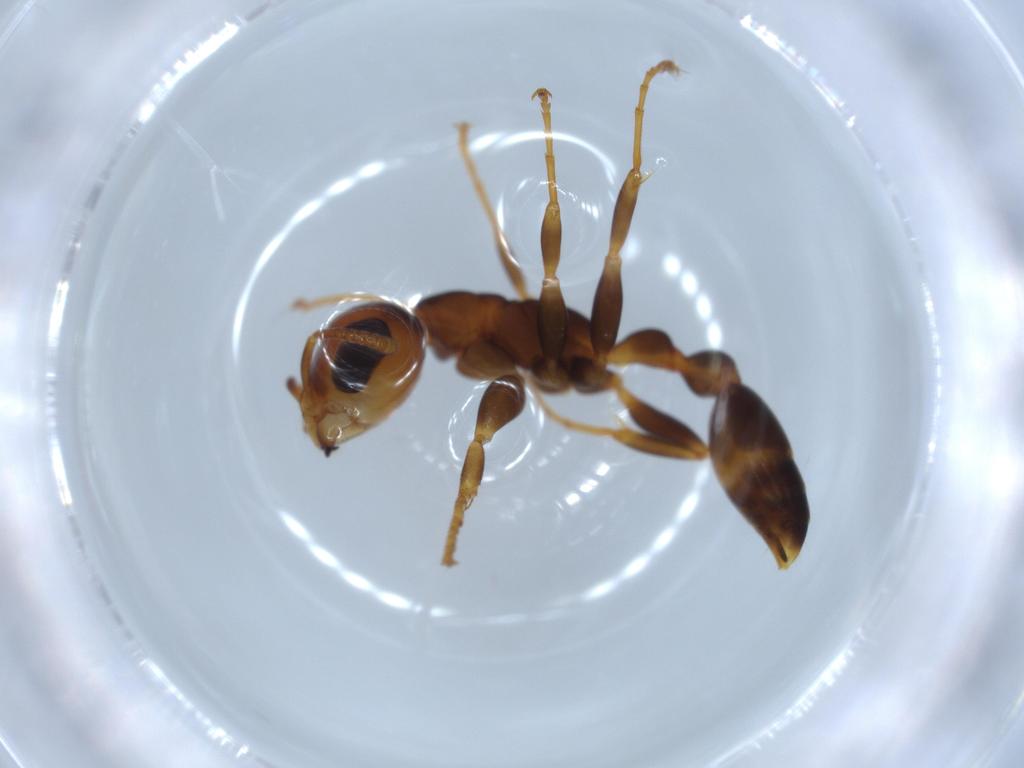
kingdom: Animalia
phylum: Arthropoda
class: Insecta
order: Hymenoptera
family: Formicidae
